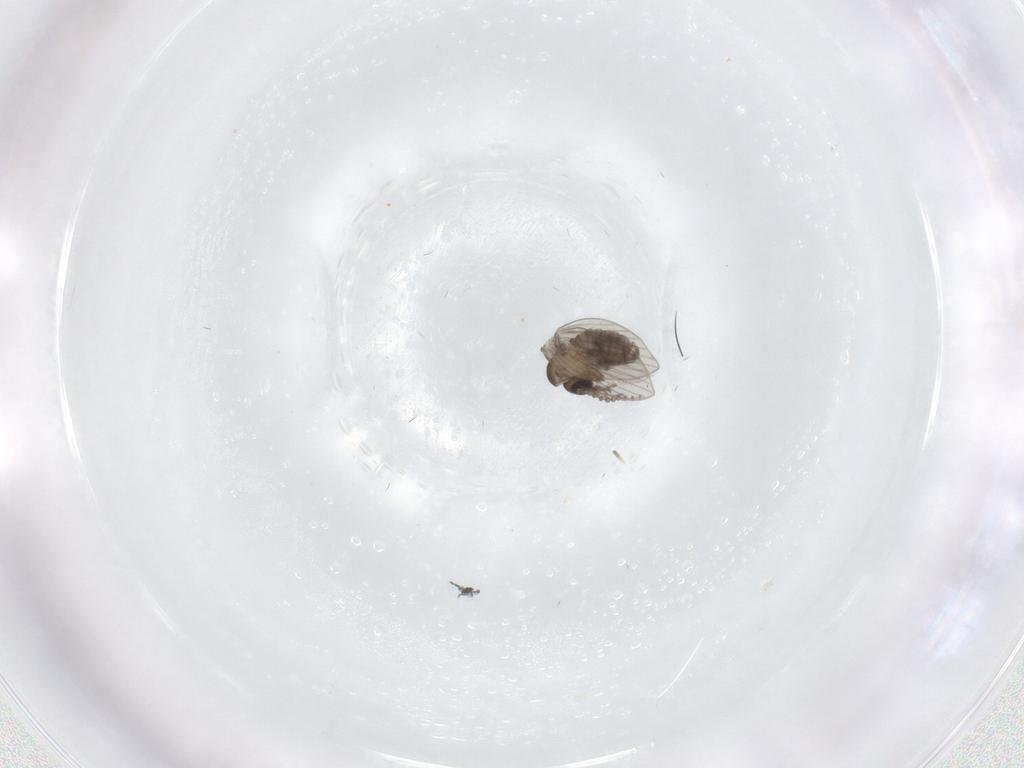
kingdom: Animalia
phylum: Arthropoda
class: Insecta
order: Diptera
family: Psychodidae
